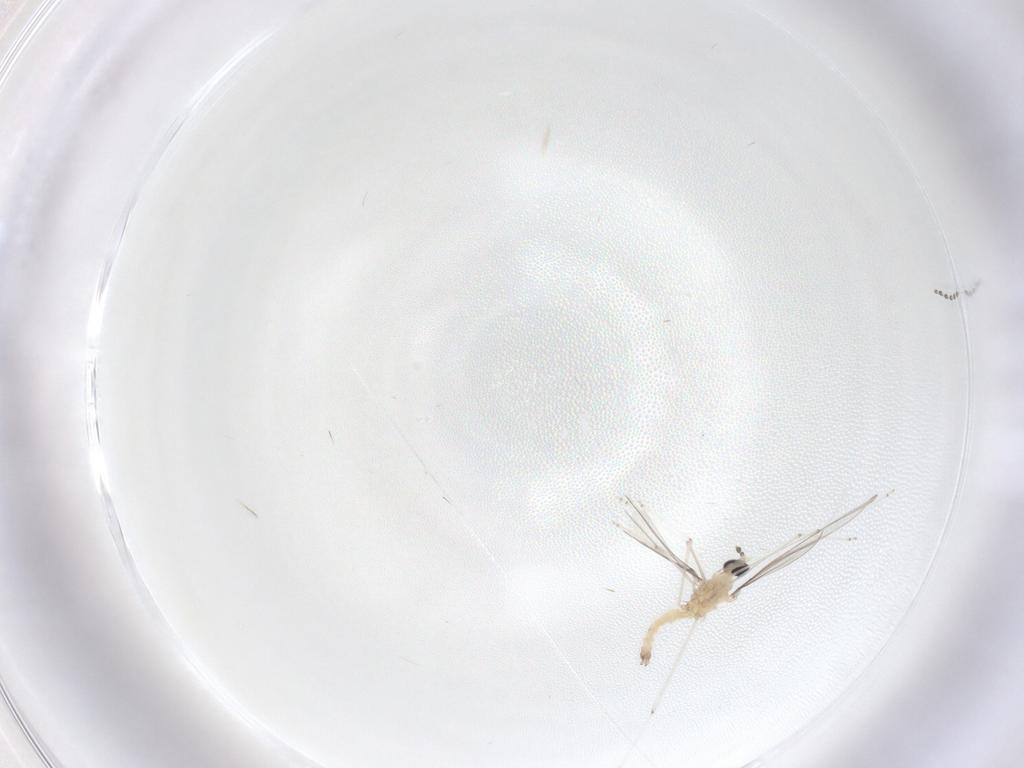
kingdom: Animalia
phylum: Arthropoda
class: Insecta
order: Diptera
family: Cecidomyiidae
